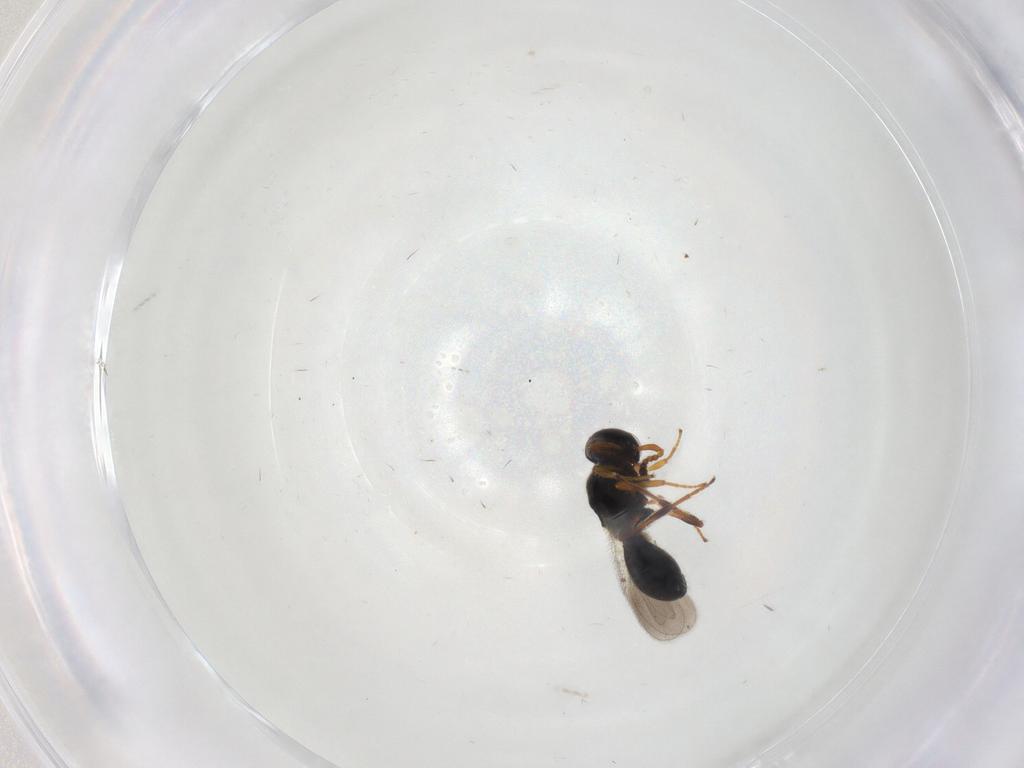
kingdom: Animalia
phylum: Arthropoda
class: Insecta
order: Hymenoptera
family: Platygastridae
